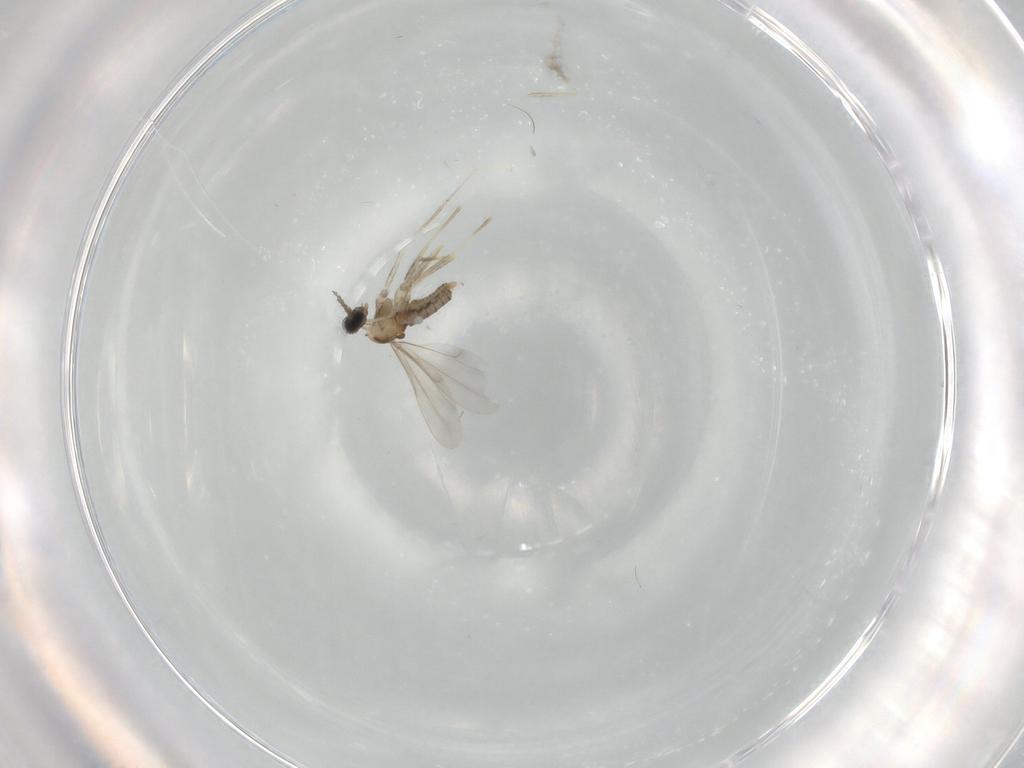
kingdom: Animalia
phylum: Arthropoda
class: Insecta
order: Diptera
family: Cecidomyiidae
